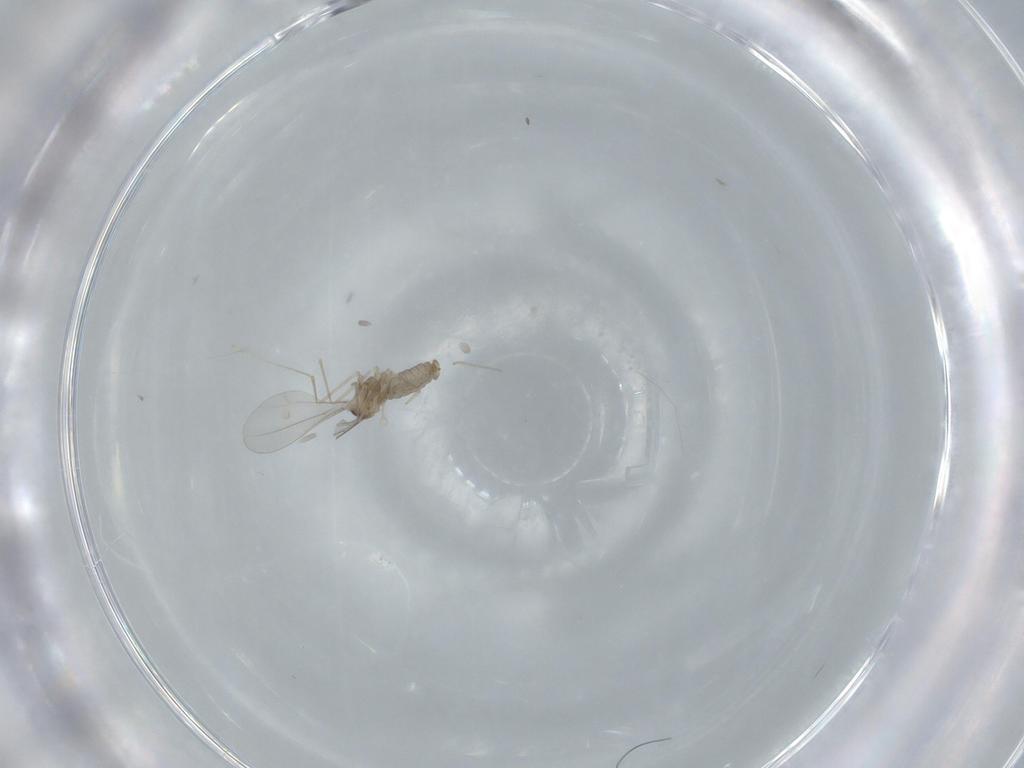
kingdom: Animalia
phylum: Arthropoda
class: Insecta
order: Diptera
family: Cecidomyiidae
